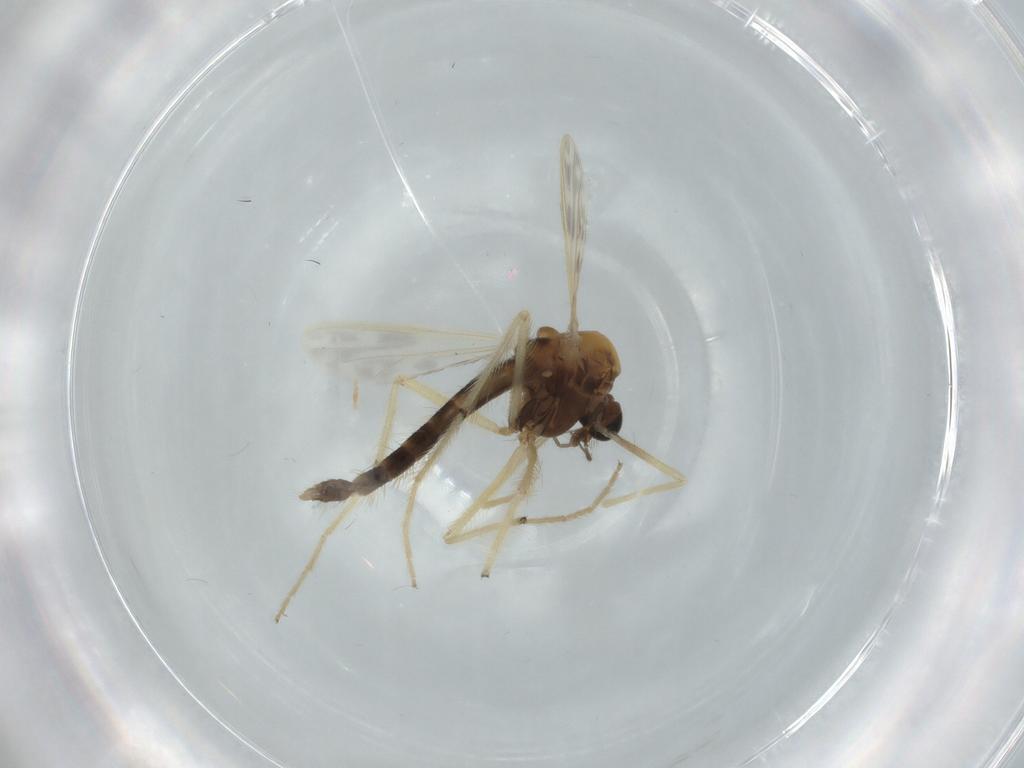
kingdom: Animalia
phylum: Arthropoda
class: Insecta
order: Diptera
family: Chironomidae
